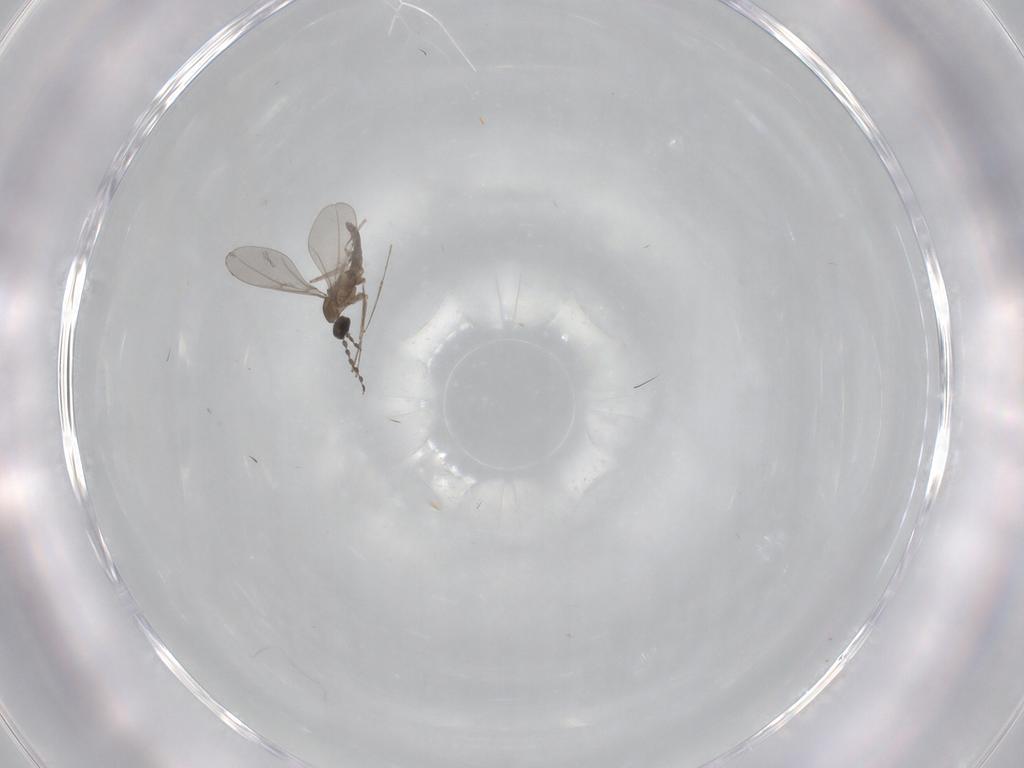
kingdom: Animalia
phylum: Arthropoda
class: Insecta
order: Diptera
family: Cecidomyiidae
